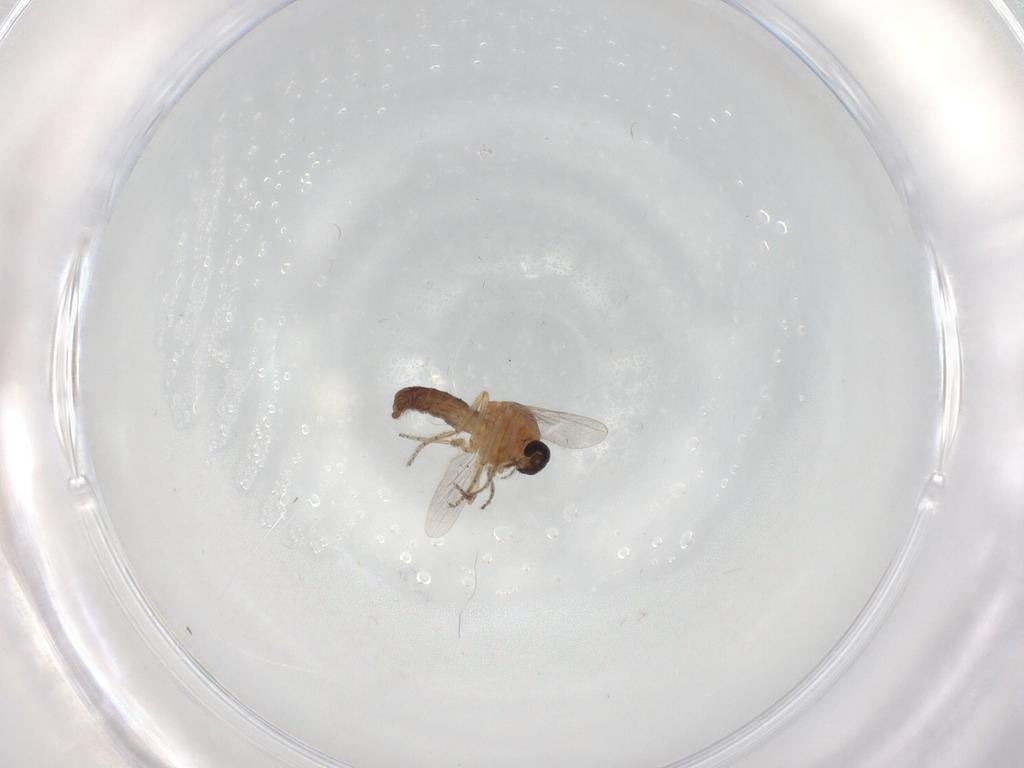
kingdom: Animalia
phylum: Arthropoda
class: Insecta
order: Diptera
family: Ceratopogonidae
